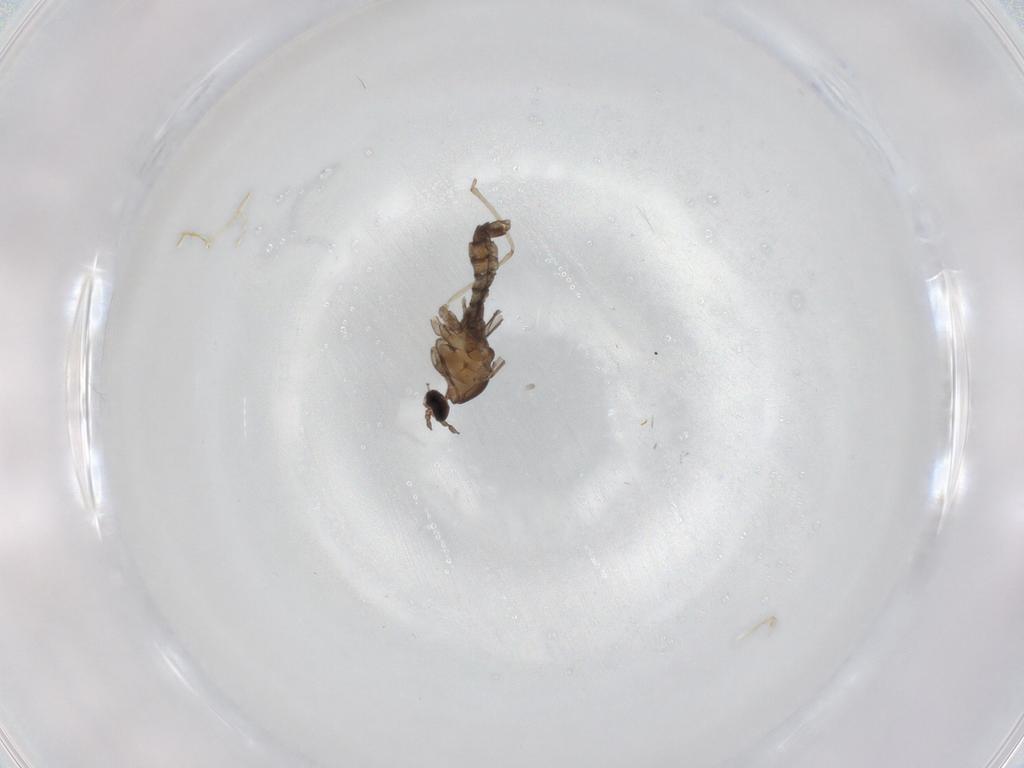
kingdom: Animalia
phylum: Arthropoda
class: Insecta
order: Diptera
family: Cecidomyiidae
